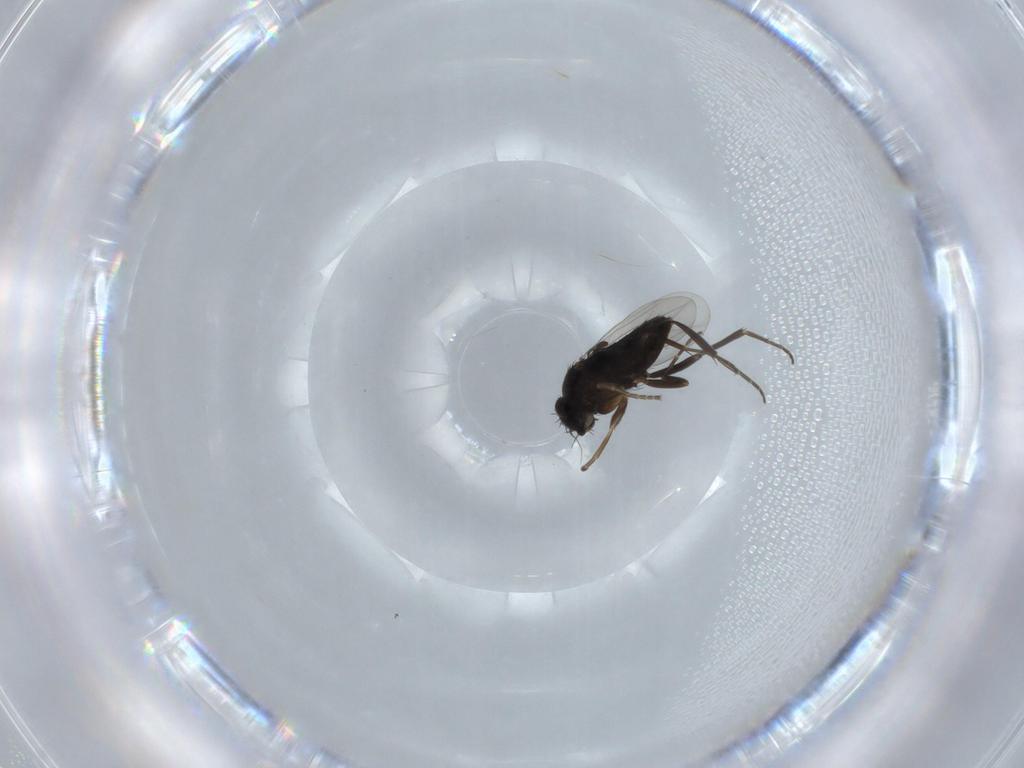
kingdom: Animalia
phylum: Arthropoda
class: Insecta
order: Diptera
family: Phoridae
